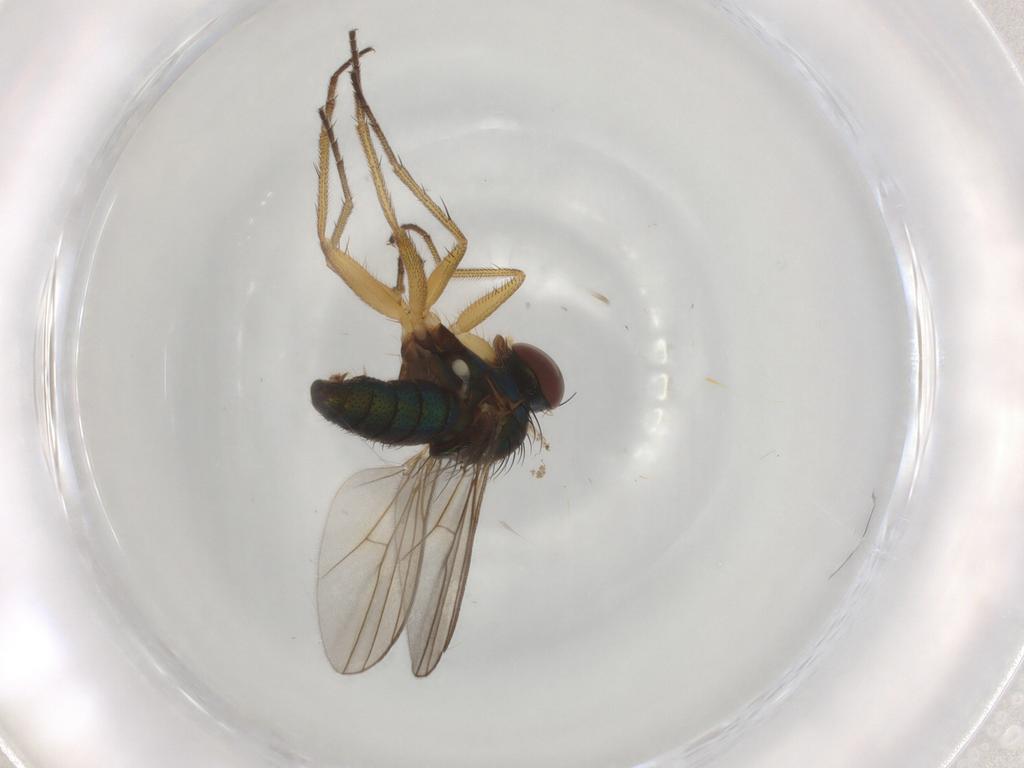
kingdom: Animalia
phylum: Arthropoda
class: Insecta
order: Diptera
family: Dolichopodidae
